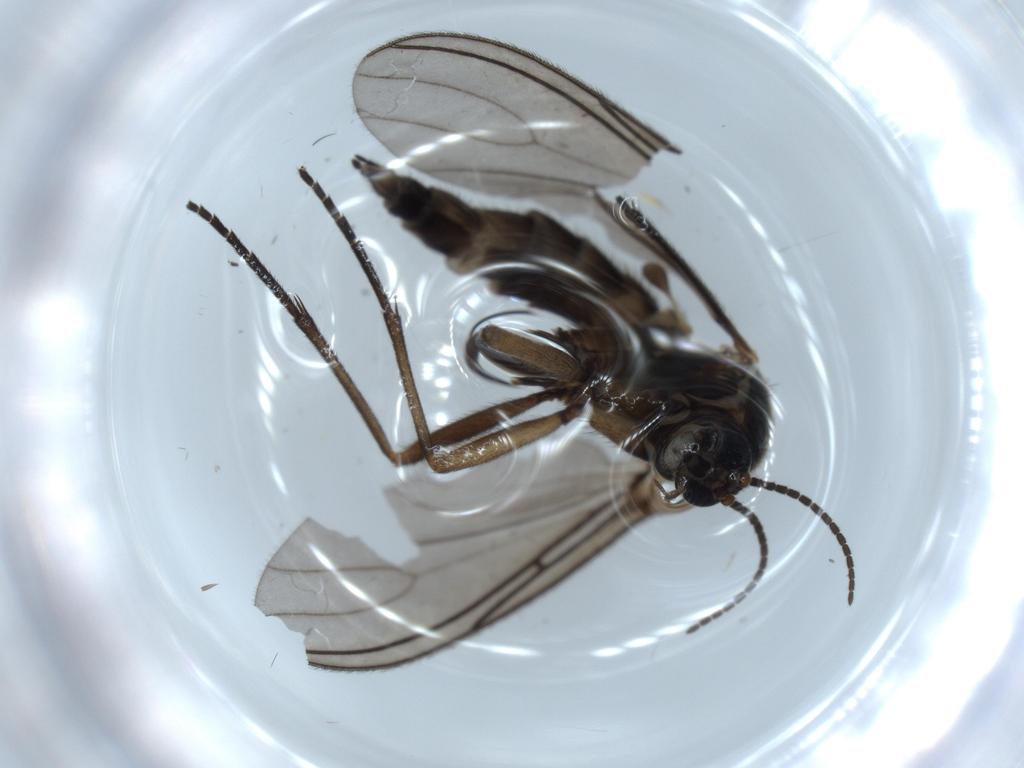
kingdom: Animalia
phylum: Arthropoda
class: Insecta
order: Diptera
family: Sciaridae
